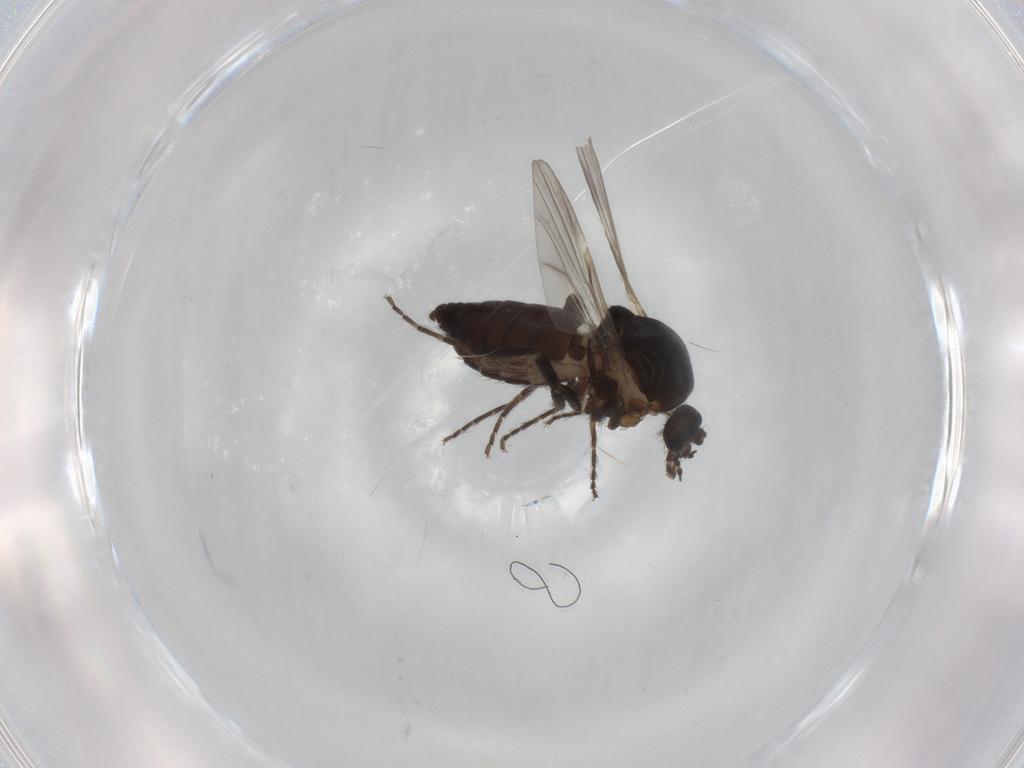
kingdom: Animalia
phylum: Arthropoda
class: Insecta
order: Diptera
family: Ceratopogonidae
